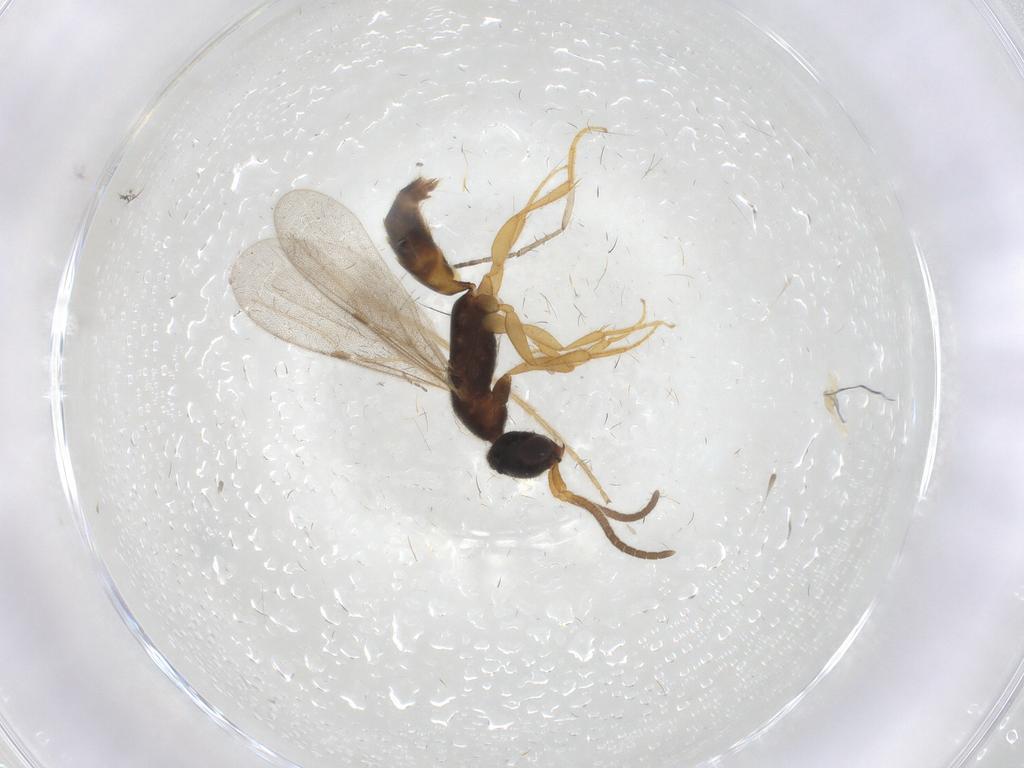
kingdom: Animalia
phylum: Arthropoda
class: Insecta
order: Hymenoptera
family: Bethylidae
